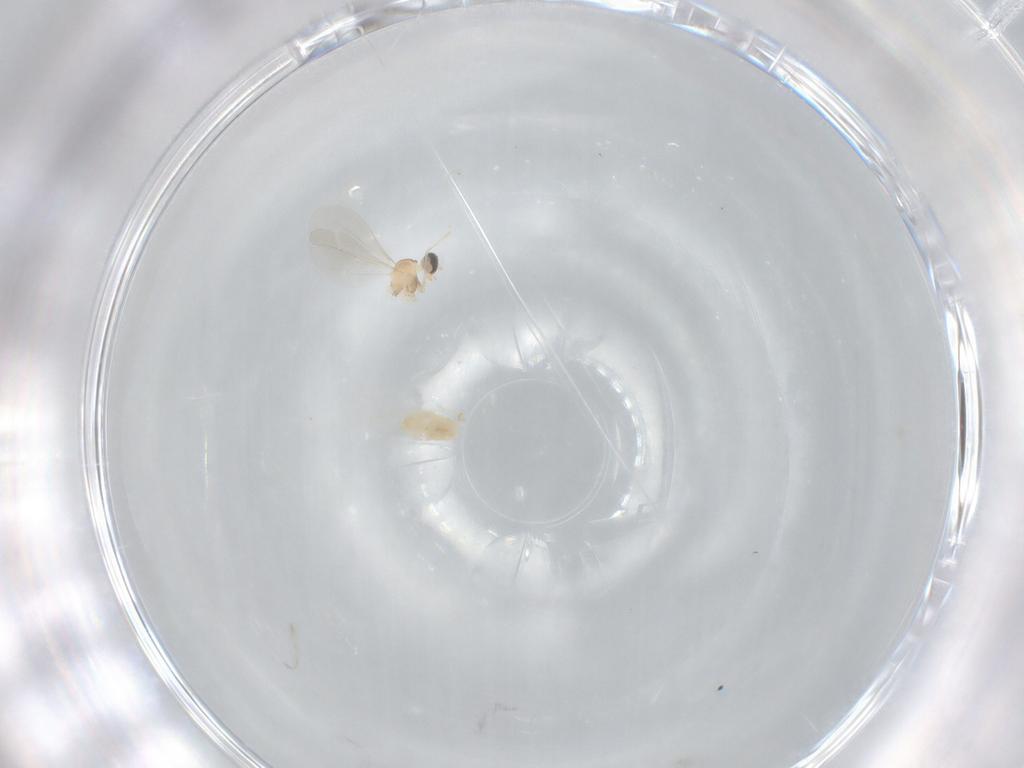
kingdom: Animalia
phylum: Arthropoda
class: Insecta
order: Diptera
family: Cecidomyiidae
